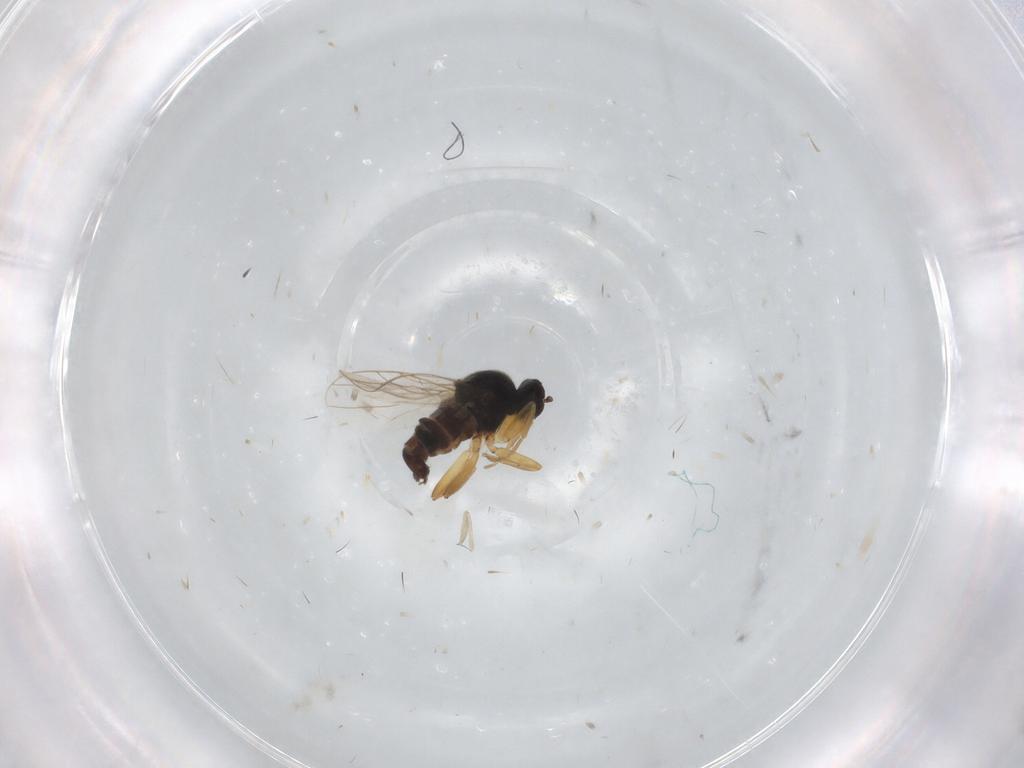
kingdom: Animalia
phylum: Arthropoda
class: Insecta
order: Diptera
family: Hybotidae
